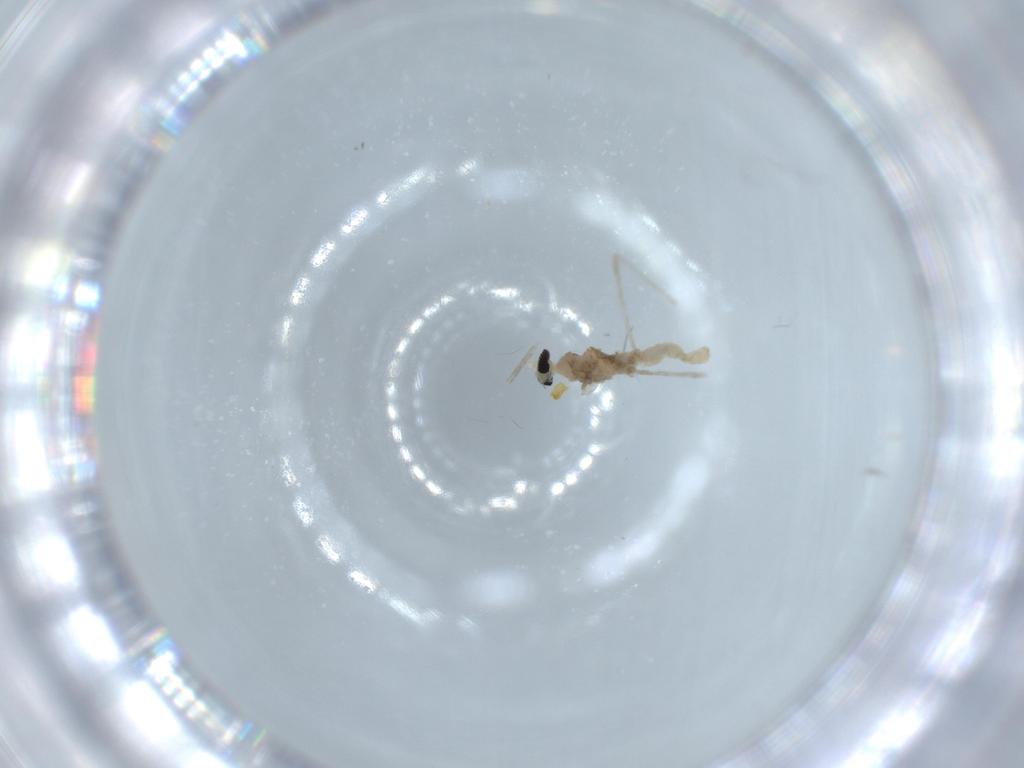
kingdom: Animalia
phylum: Arthropoda
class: Insecta
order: Diptera
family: Cecidomyiidae
